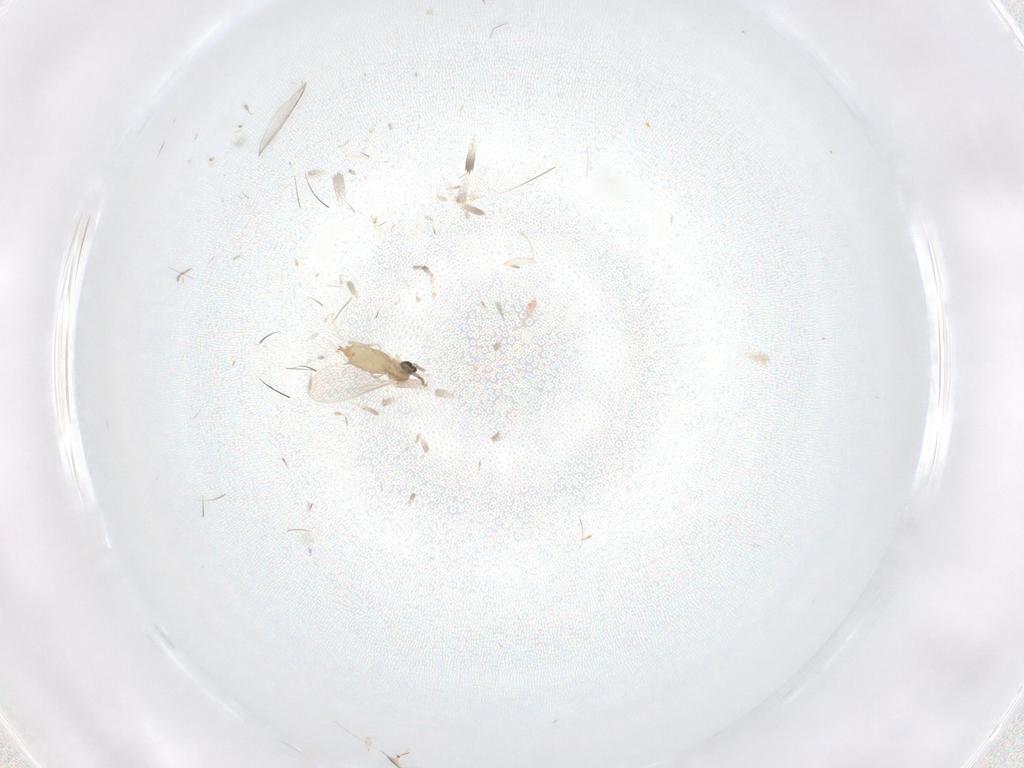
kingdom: Animalia
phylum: Arthropoda
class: Insecta
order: Diptera
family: Cecidomyiidae
